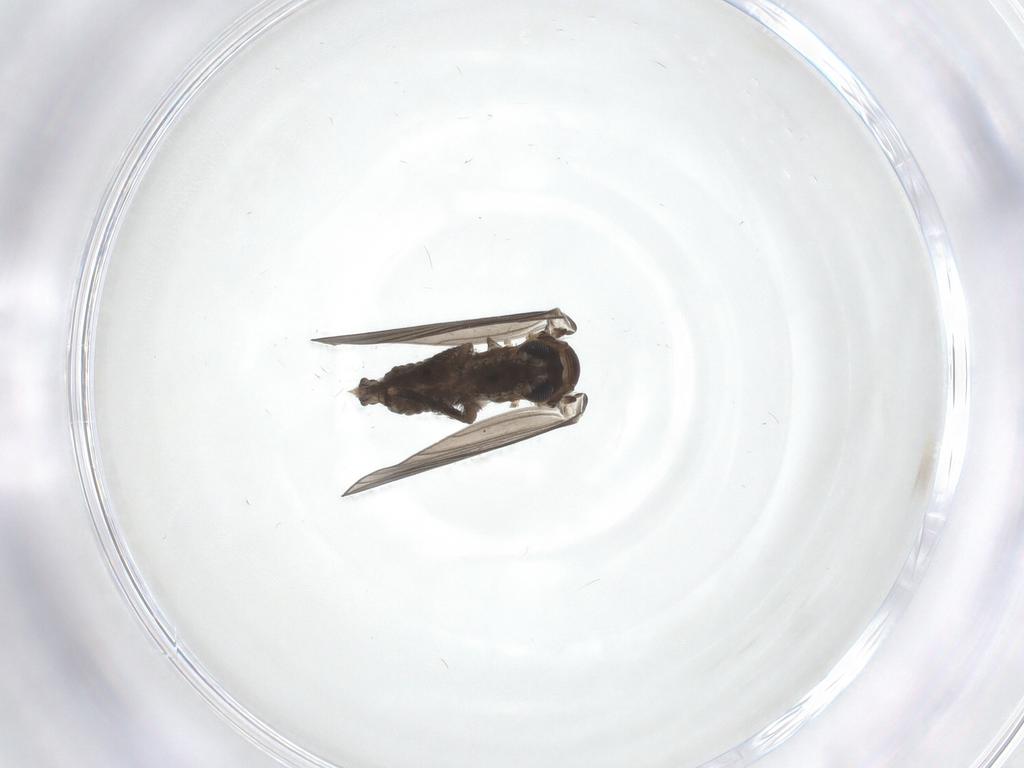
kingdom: Animalia
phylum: Arthropoda
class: Insecta
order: Diptera
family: Psychodidae
